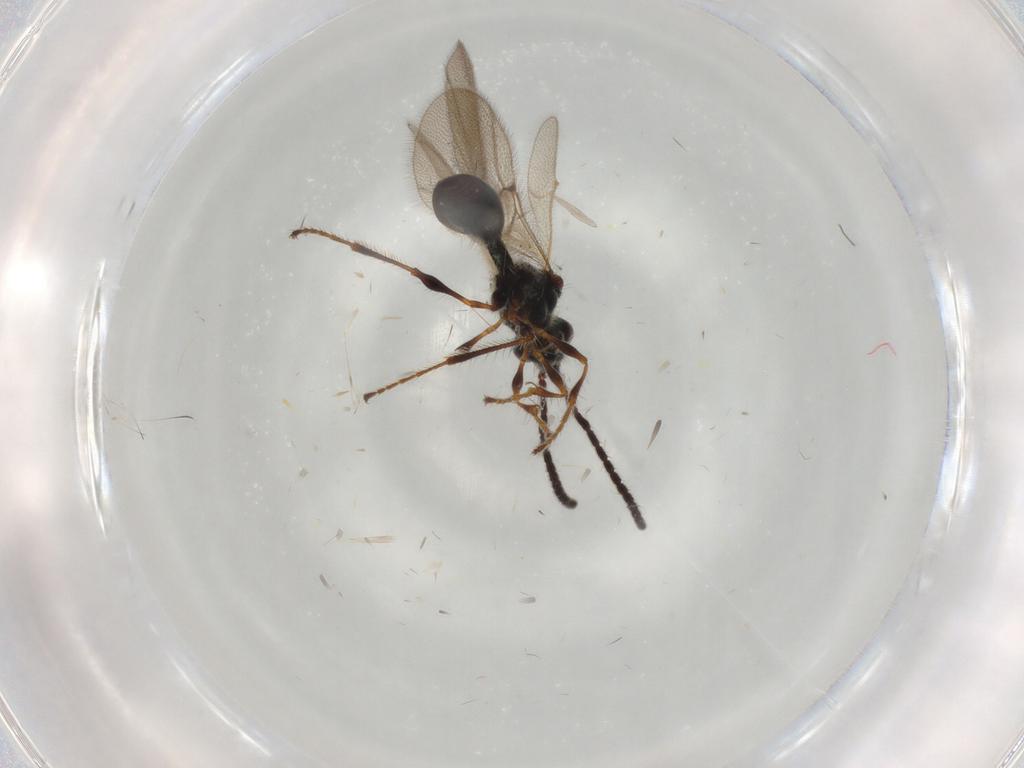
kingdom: Animalia
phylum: Arthropoda
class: Insecta
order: Hymenoptera
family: Diapriidae
